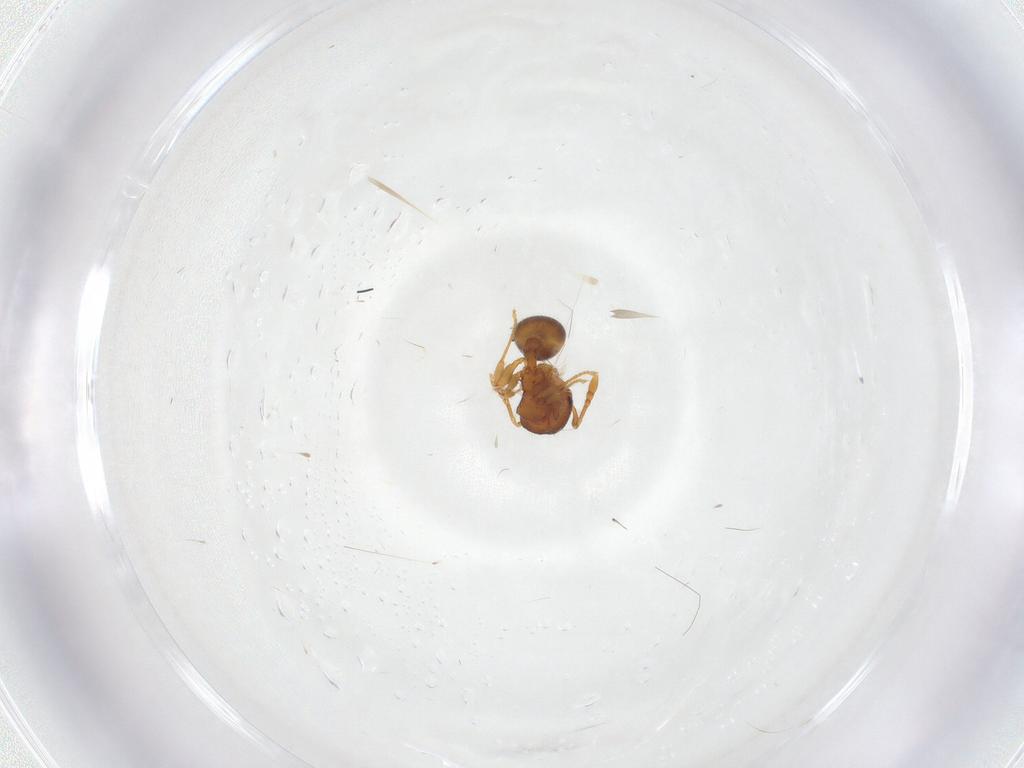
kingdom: Animalia
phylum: Arthropoda
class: Insecta
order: Hymenoptera
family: Formicidae
